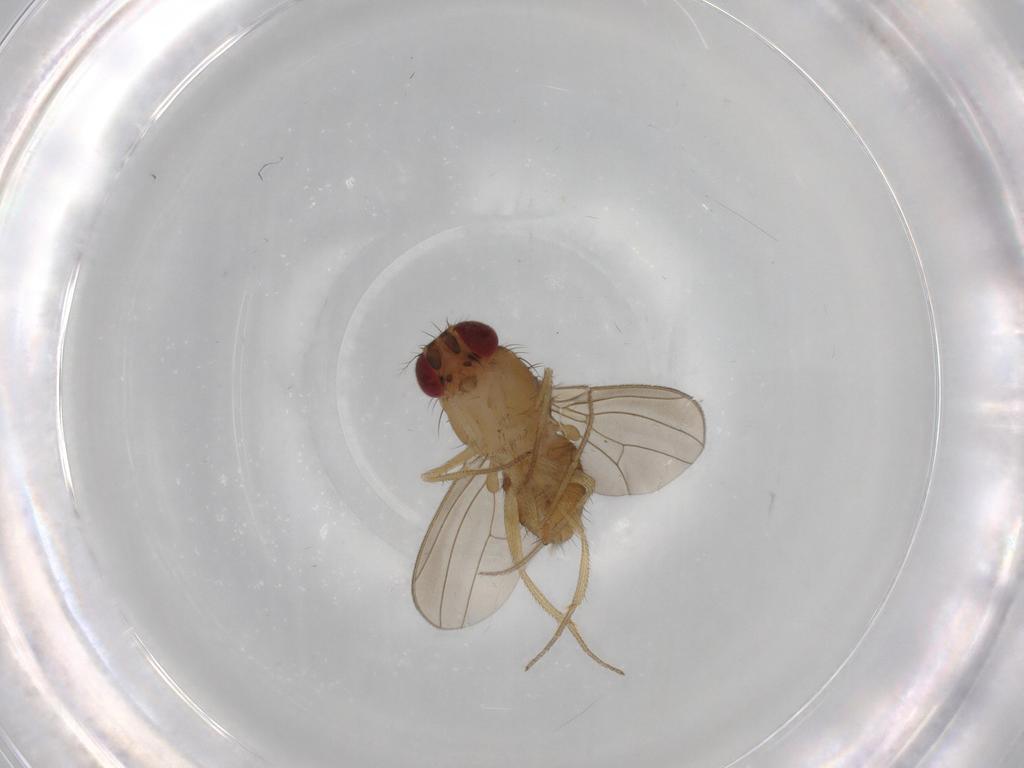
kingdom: Animalia
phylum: Arthropoda
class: Insecta
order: Diptera
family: Drosophilidae
